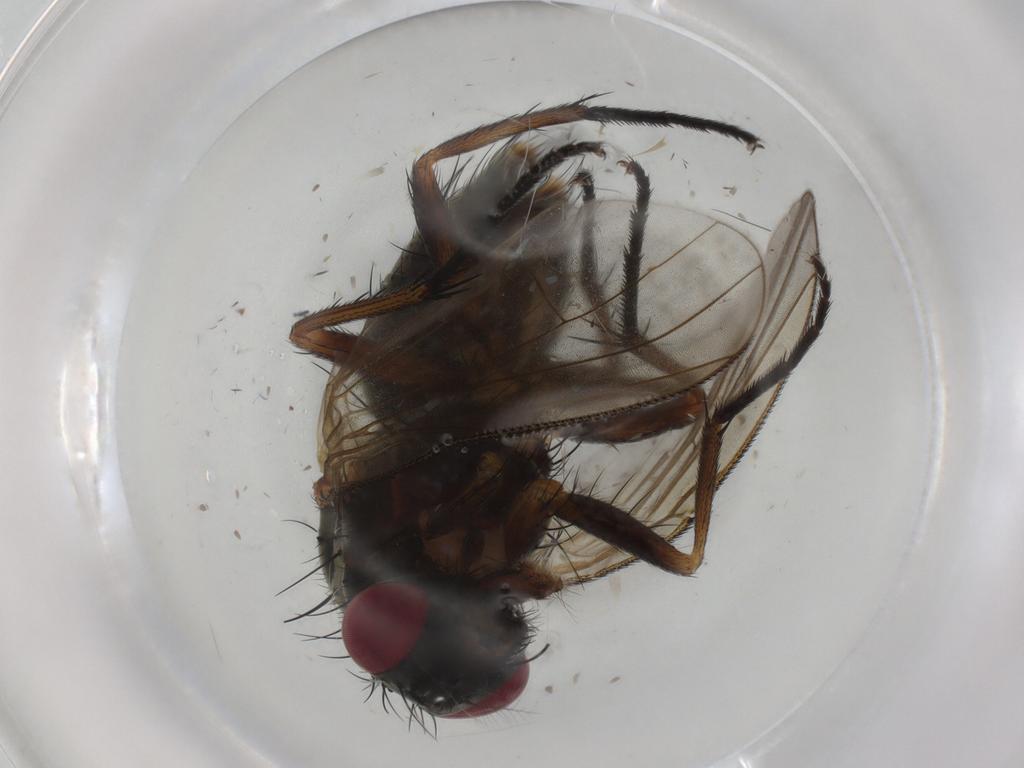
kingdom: Animalia
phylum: Arthropoda
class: Insecta
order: Diptera
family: Calliphoridae
